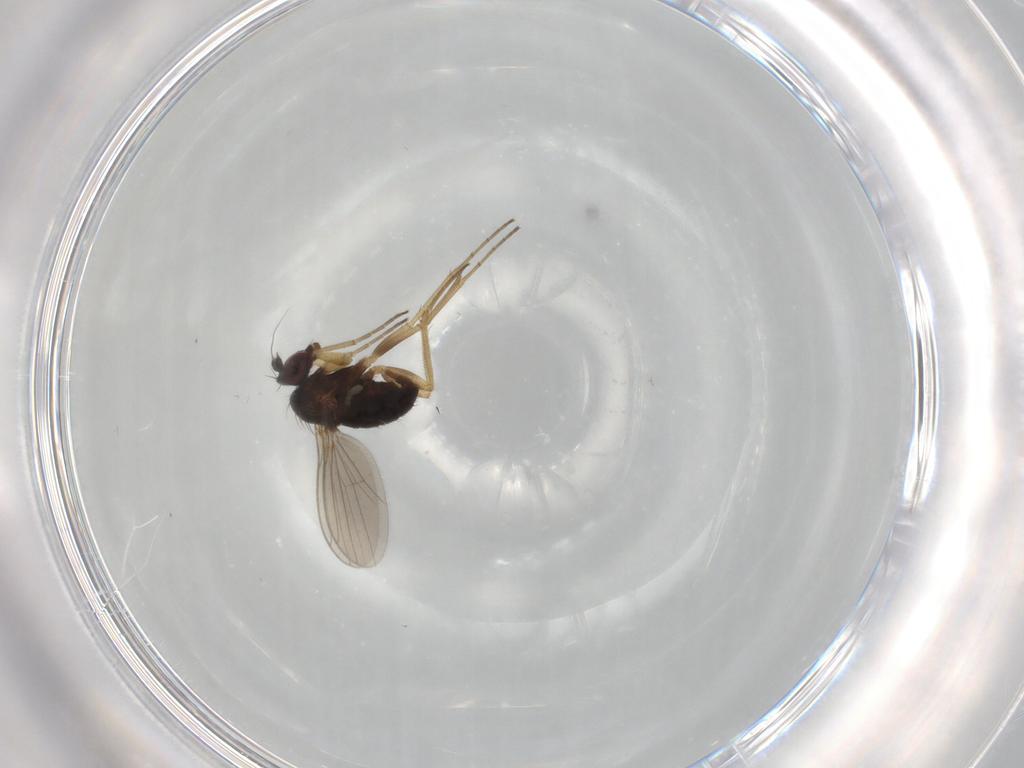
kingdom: Animalia
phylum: Arthropoda
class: Insecta
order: Diptera
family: Dolichopodidae
